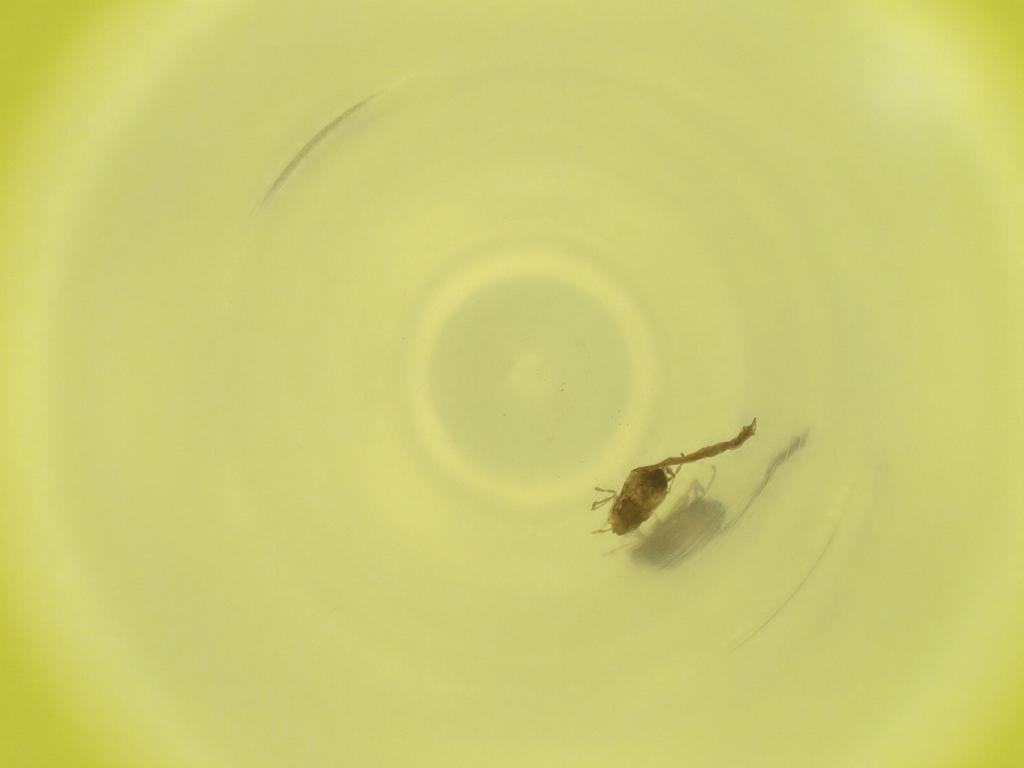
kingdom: Animalia
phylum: Arthropoda
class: Insecta
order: Diptera
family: Cecidomyiidae
